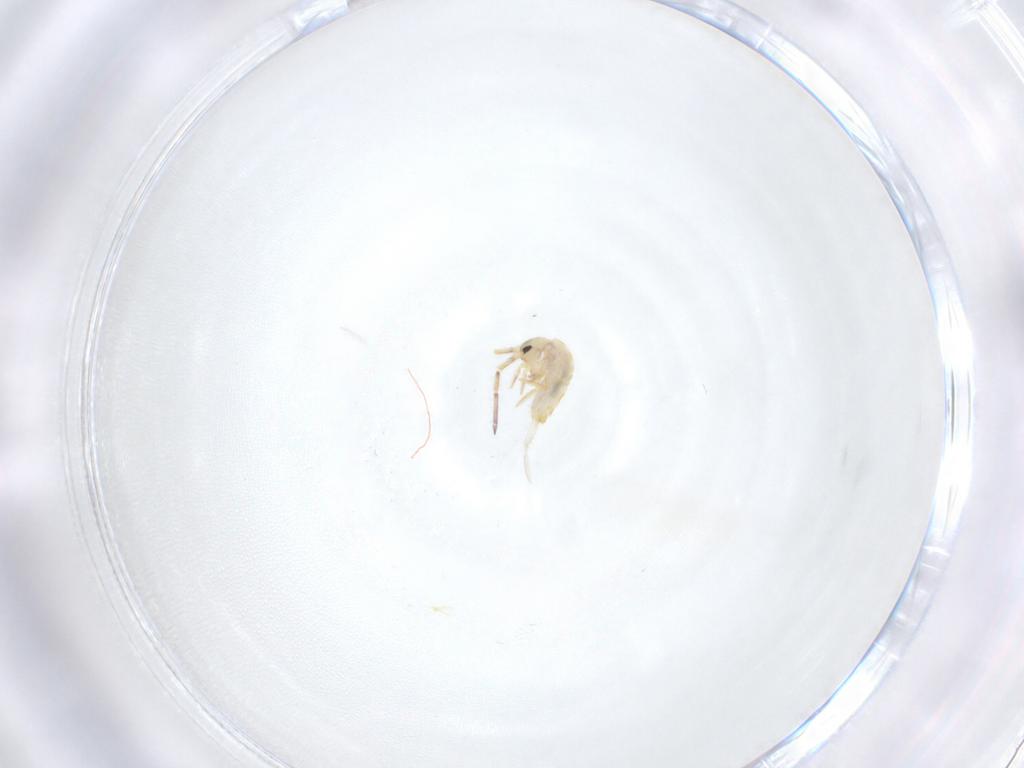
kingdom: Animalia
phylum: Arthropoda
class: Collembola
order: Entomobryomorpha
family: Entomobryidae
